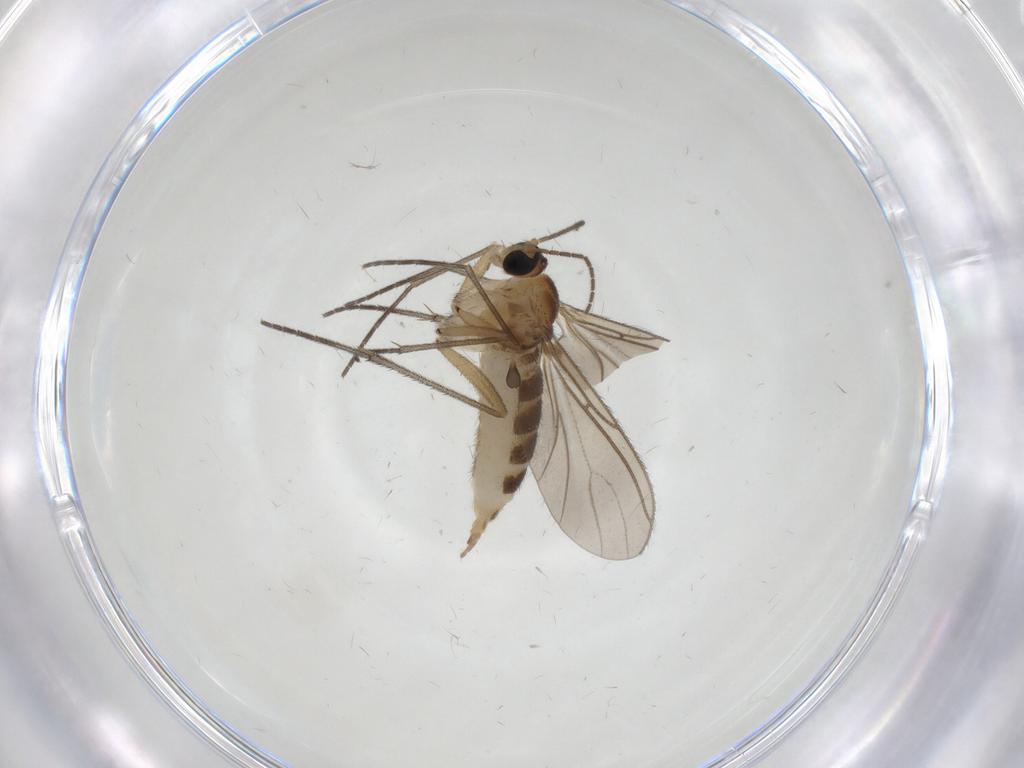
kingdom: Animalia
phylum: Arthropoda
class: Insecta
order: Diptera
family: Sciaridae
